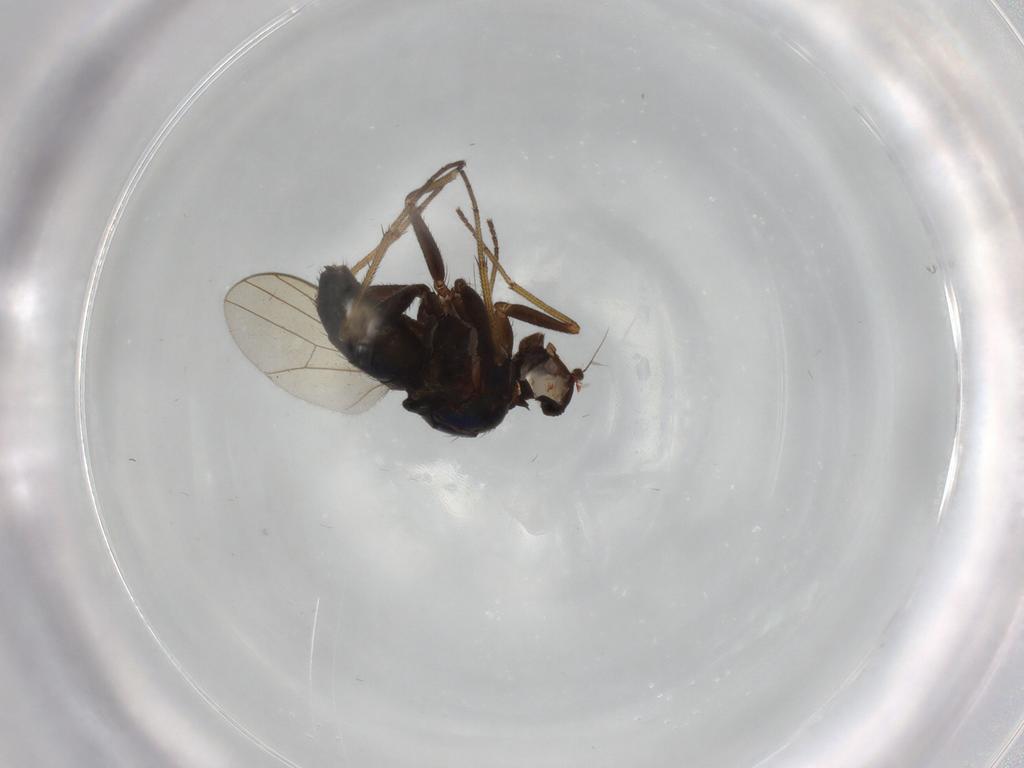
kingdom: Animalia
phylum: Arthropoda
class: Insecta
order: Diptera
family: Dolichopodidae
